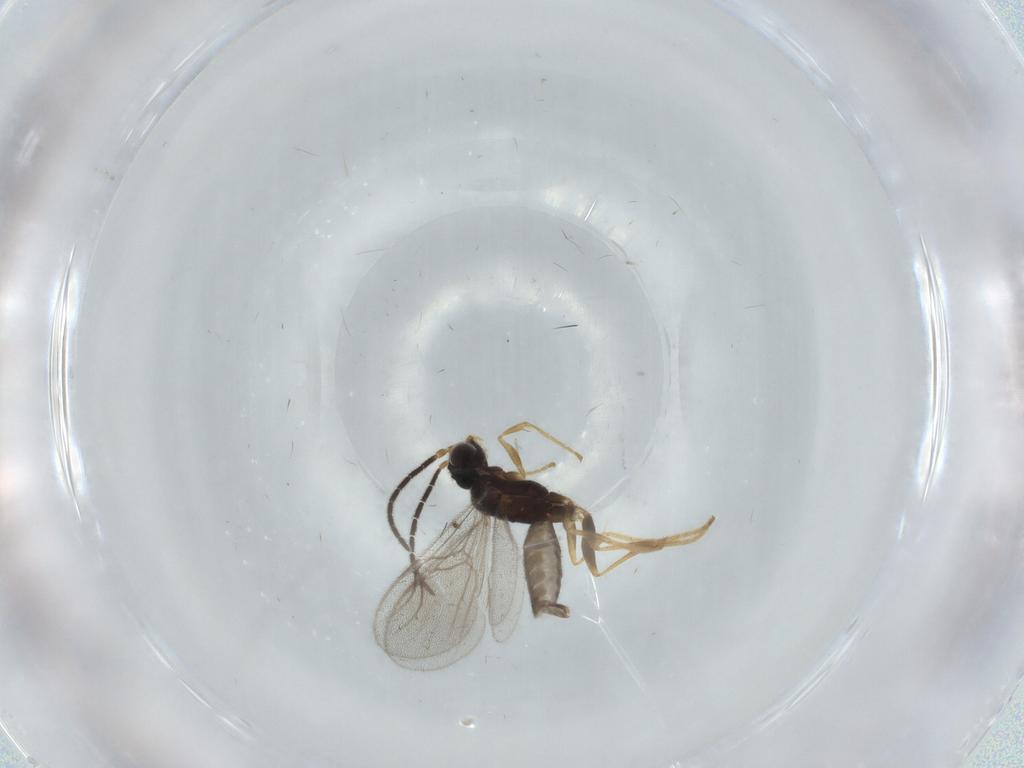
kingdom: Animalia
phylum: Arthropoda
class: Insecta
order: Hymenoptera
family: Dryinidae
